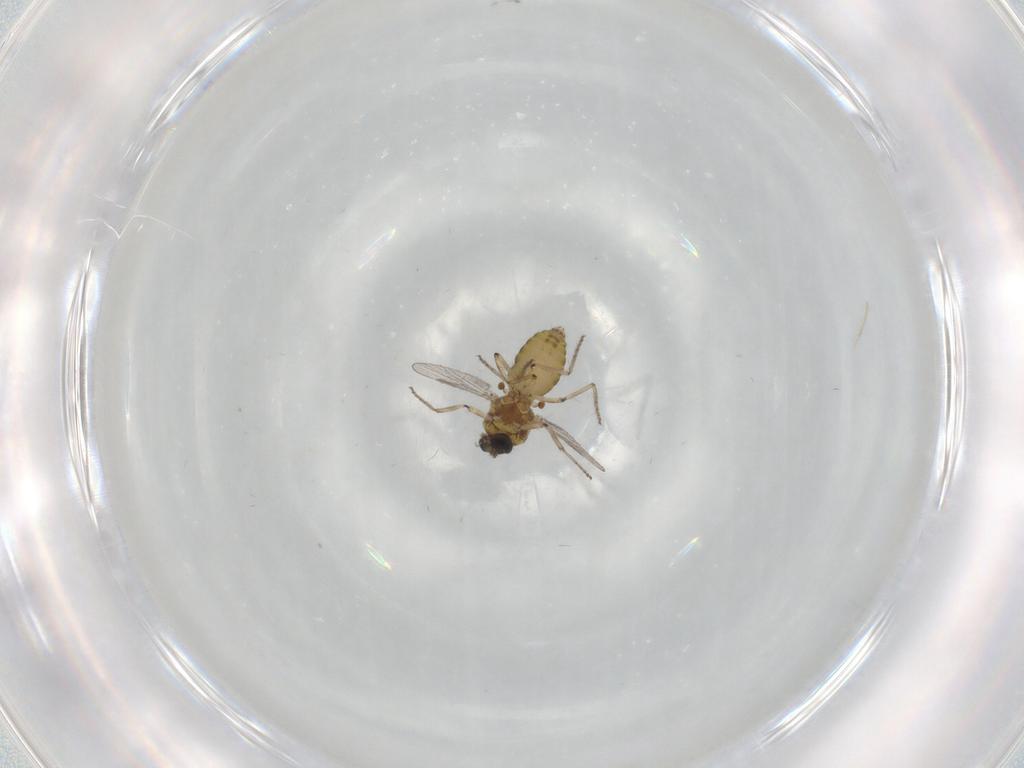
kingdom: Animalia
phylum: Arthropoda
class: Insecta
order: Diptera
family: Ceratopogonidae
